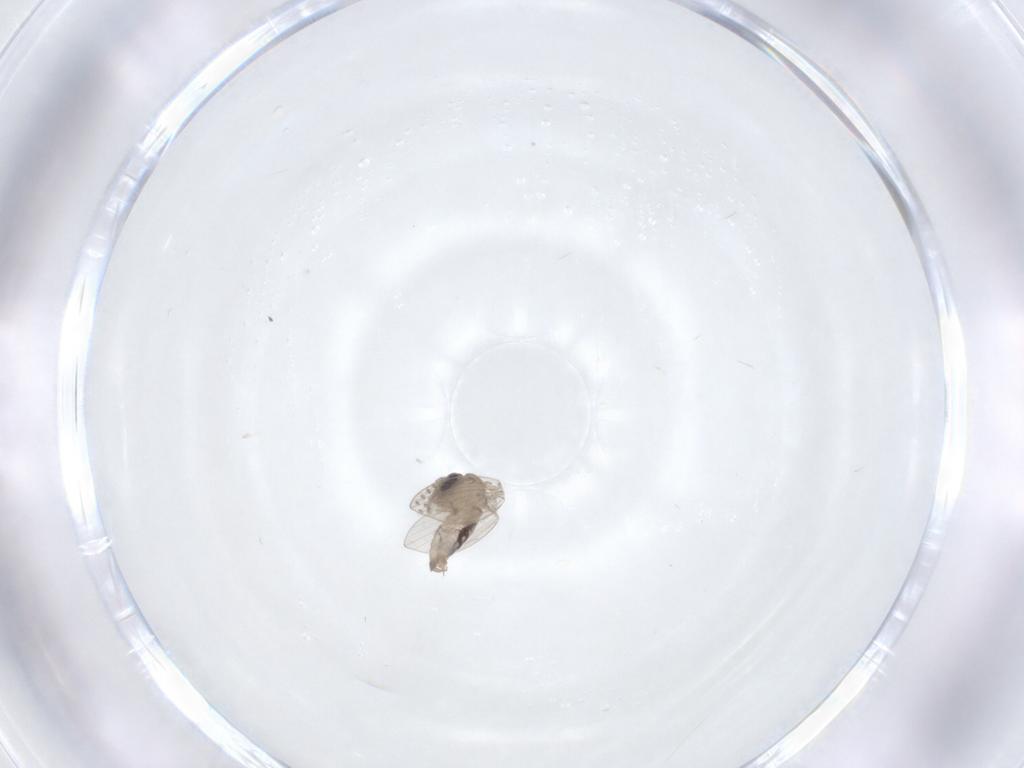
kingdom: Animalia
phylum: Arthropoda
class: Insecta
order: Diptera
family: Psychodidae
